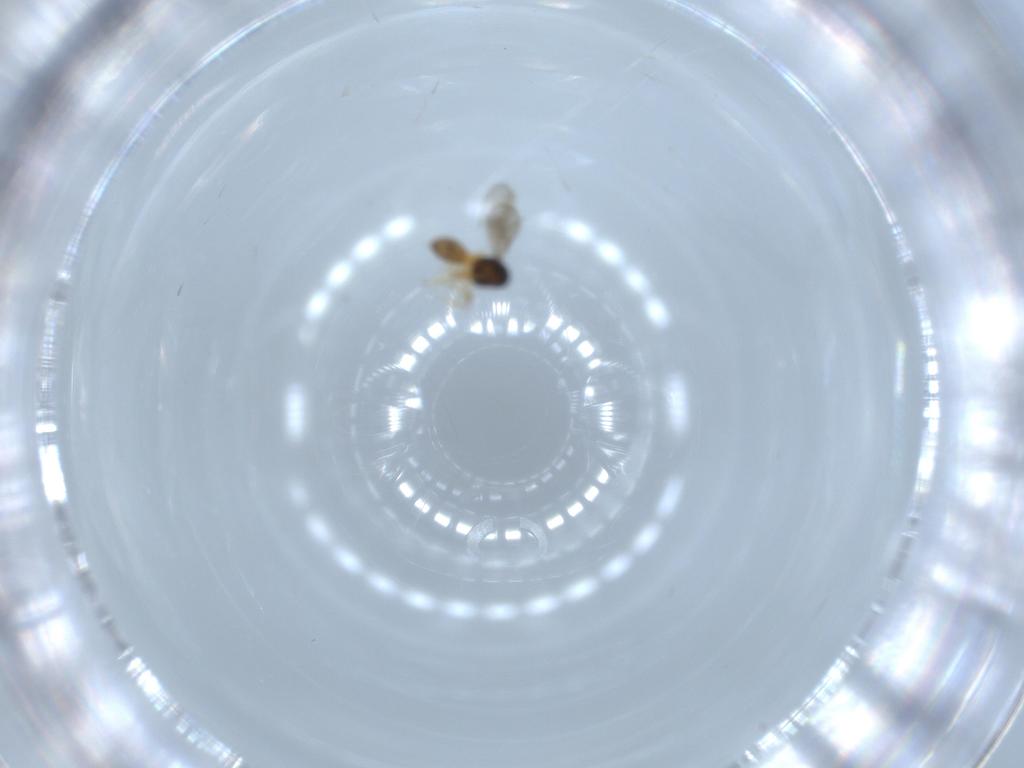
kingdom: Animalia
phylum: Arthropoda
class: Insecta
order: Hymenoptera
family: Scelionidae
